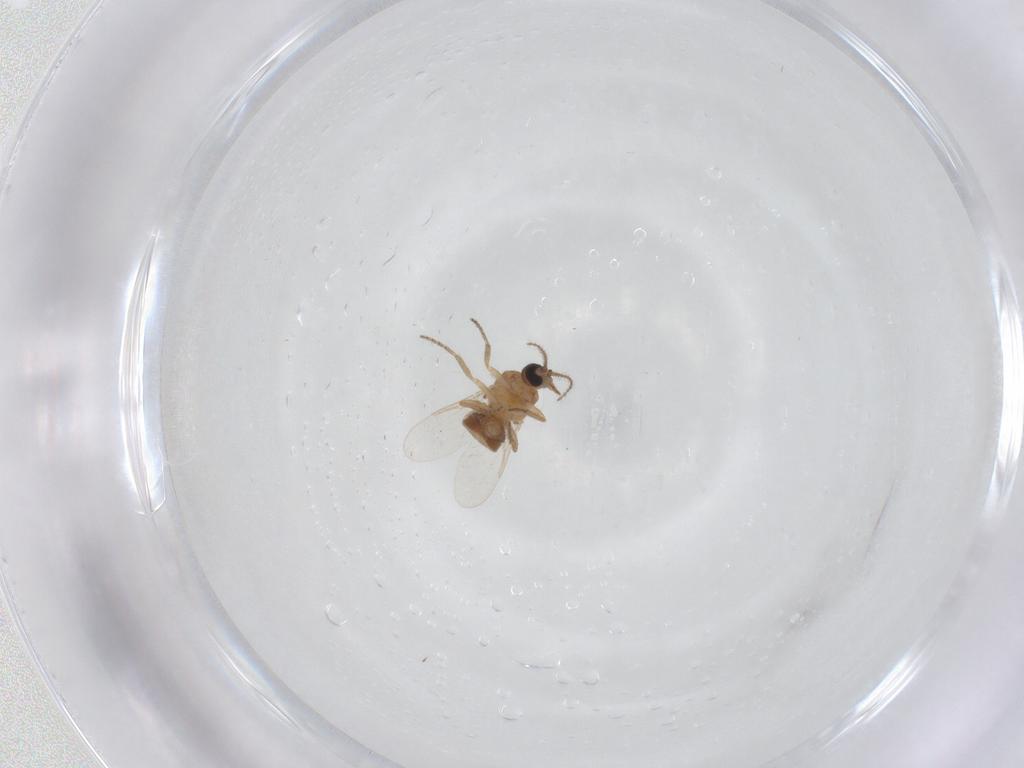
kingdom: Animalia
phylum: Arthropoda
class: Insecta
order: Diptera
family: Ceratopogonidae
